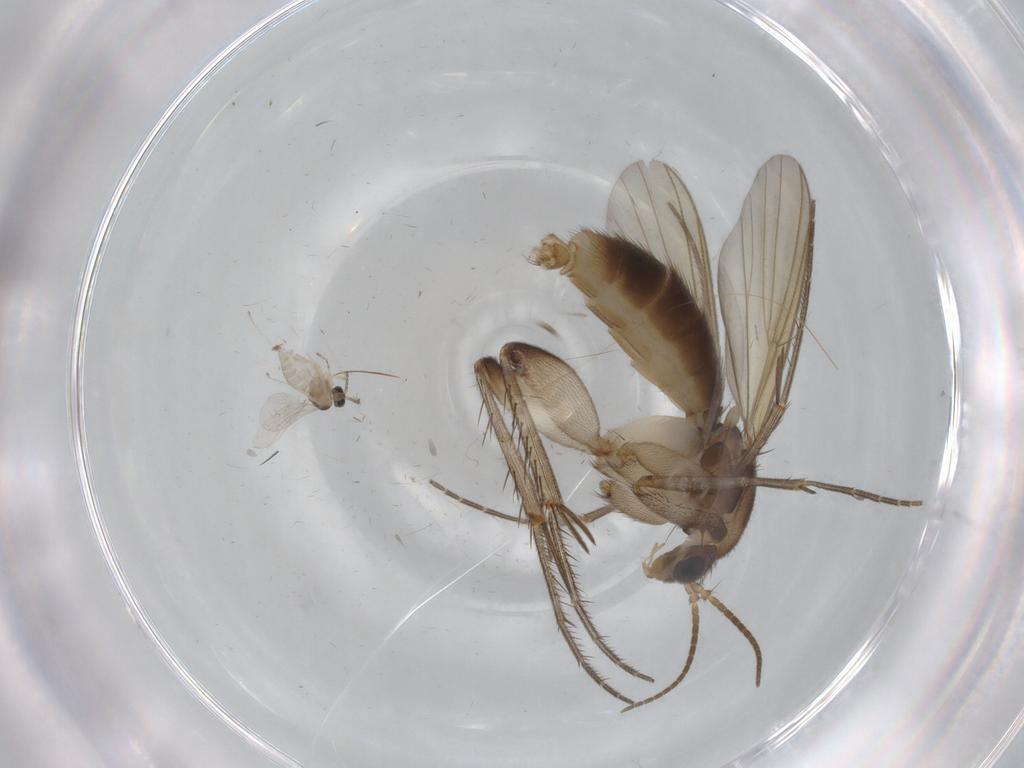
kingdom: Animalia
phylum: Arthropoda
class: Insecta
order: Diptera
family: Cecidomyiidae
